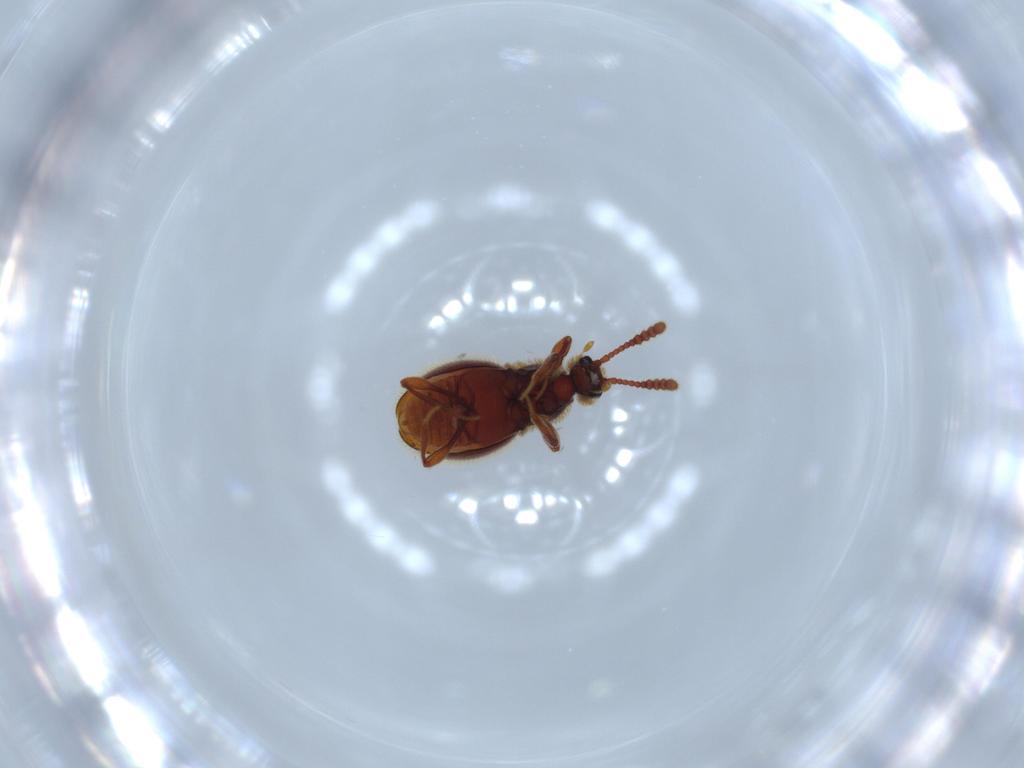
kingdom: Animalia
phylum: Arthropoda
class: Insecta
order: Coleoptera
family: Staphylinidae
